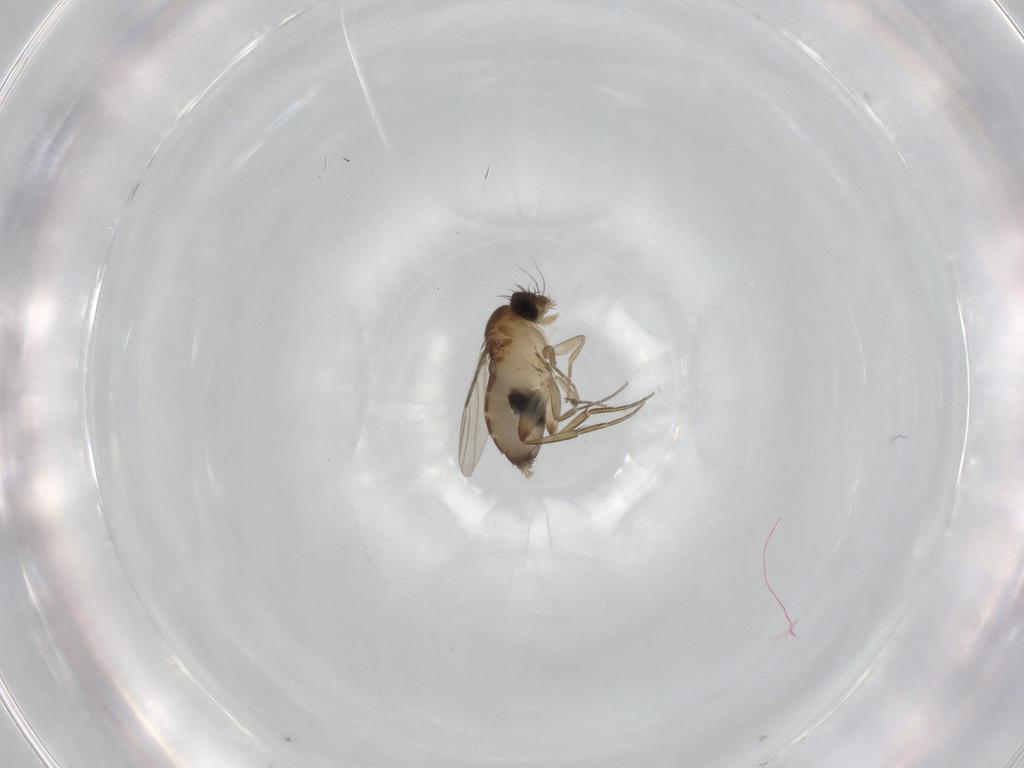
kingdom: Animalia
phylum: Arthropoda
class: Insecta
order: Diptera
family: Phoridae
